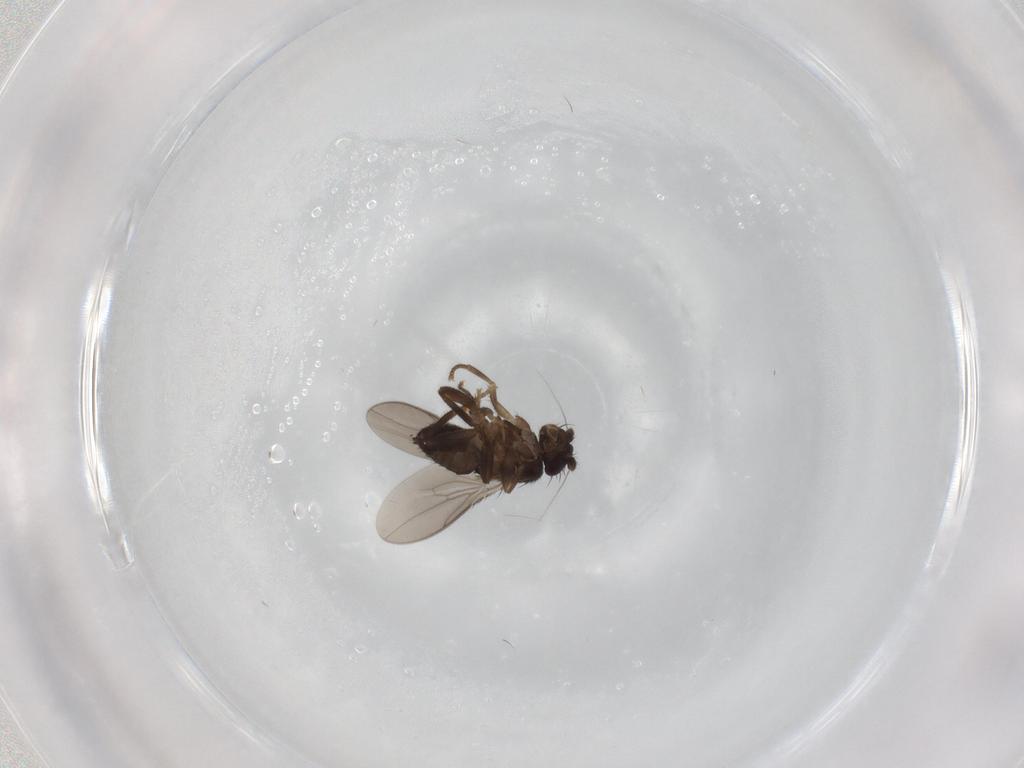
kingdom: Animalia
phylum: Arthropoda
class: Insecta
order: Diptera
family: Sphaeroceridae
